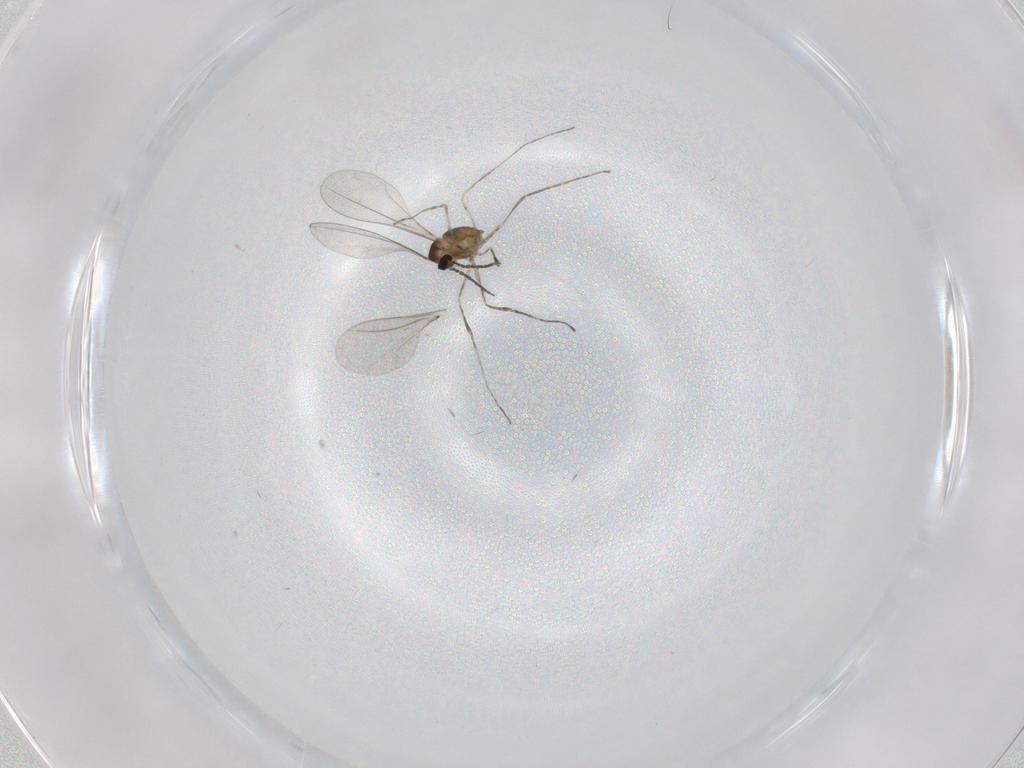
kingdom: Animalia
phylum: Arthropoda
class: Insecta
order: Diptera
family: Cecidomyiidae
